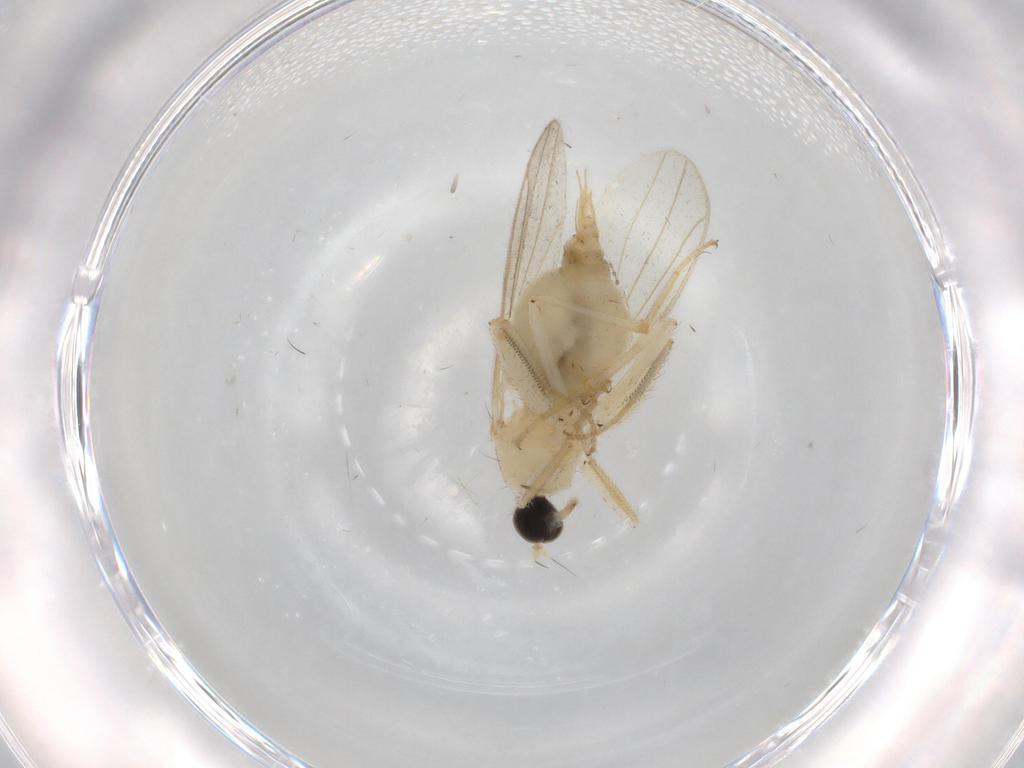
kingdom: Animalia
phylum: Arthropoda
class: Insecta
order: Diptera
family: Hybotidae
